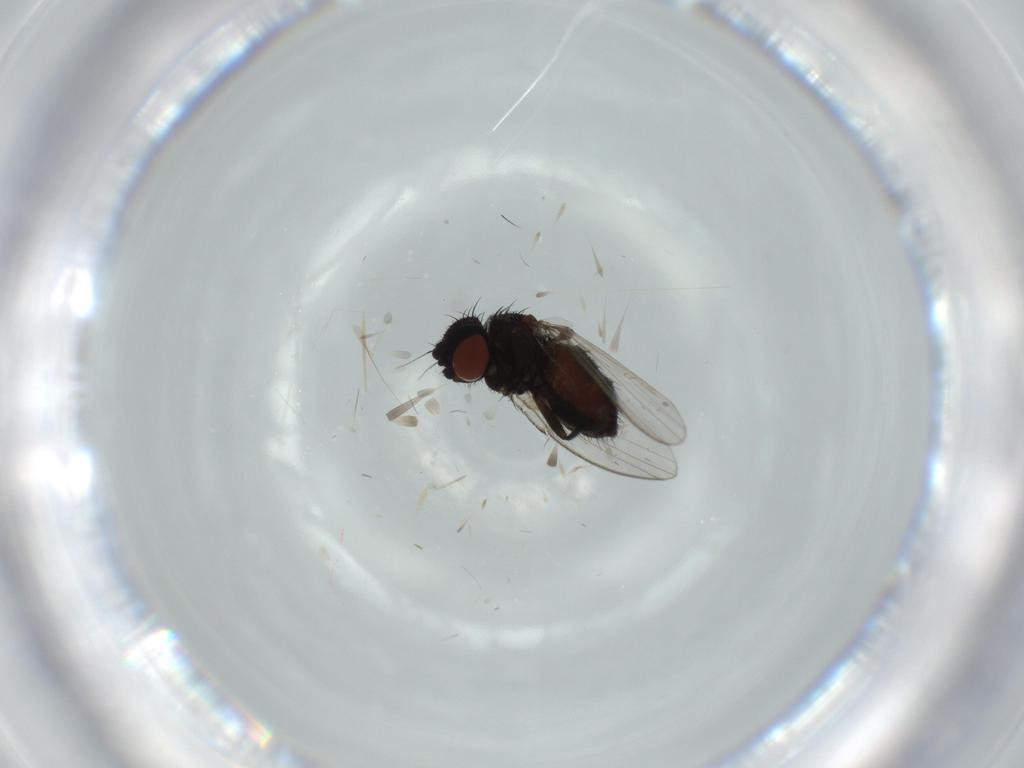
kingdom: Animalia
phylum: Arthropoda
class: Insecta
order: Diptera
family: Milichiidae
